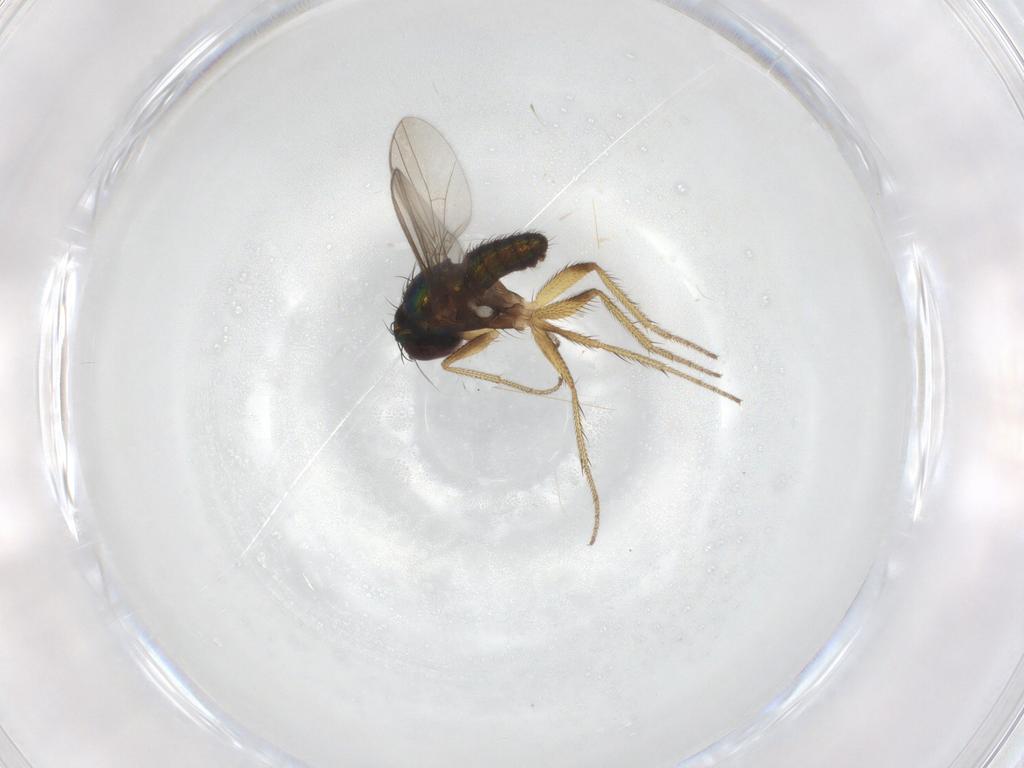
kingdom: Animalia
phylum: Arthropoda
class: Insecta
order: Diptera
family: Dolichopodidae
